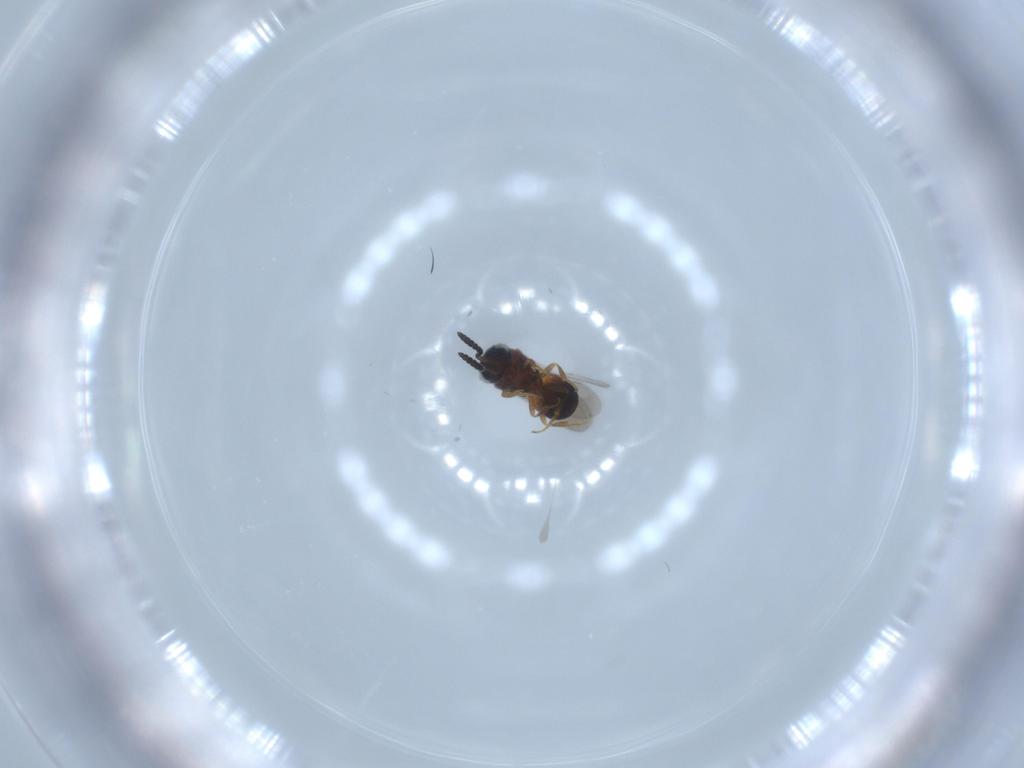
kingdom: Animalia
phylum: Arthropoda
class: Insecta
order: Hymenoptera
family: Scelionidae
